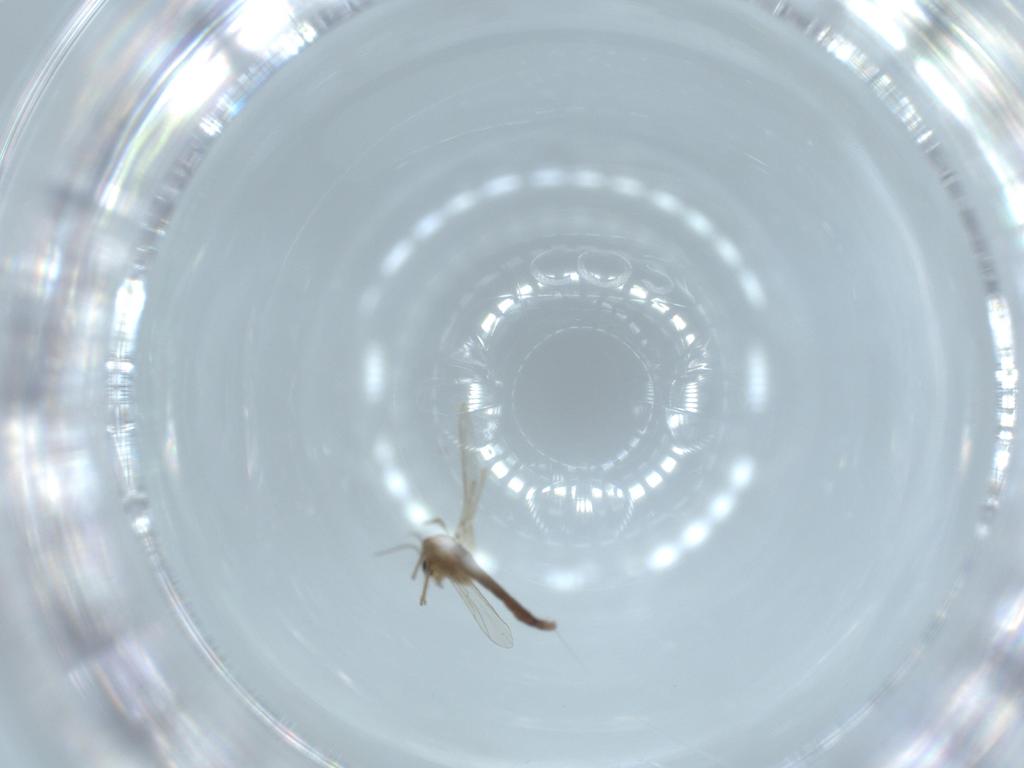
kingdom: Animalia
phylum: Arthropoda
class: Insecta
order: Diptera
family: Chironomidae
